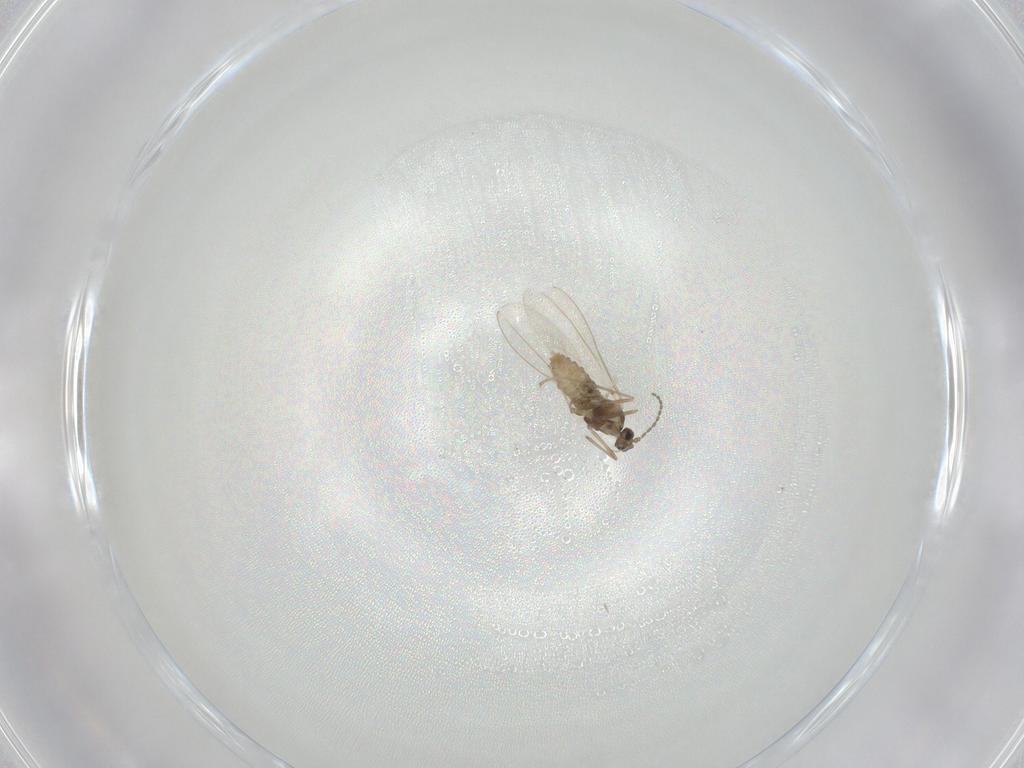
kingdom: Animalia
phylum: Arthropoda
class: Insecta
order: Diptera
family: Cecidomyiidae
